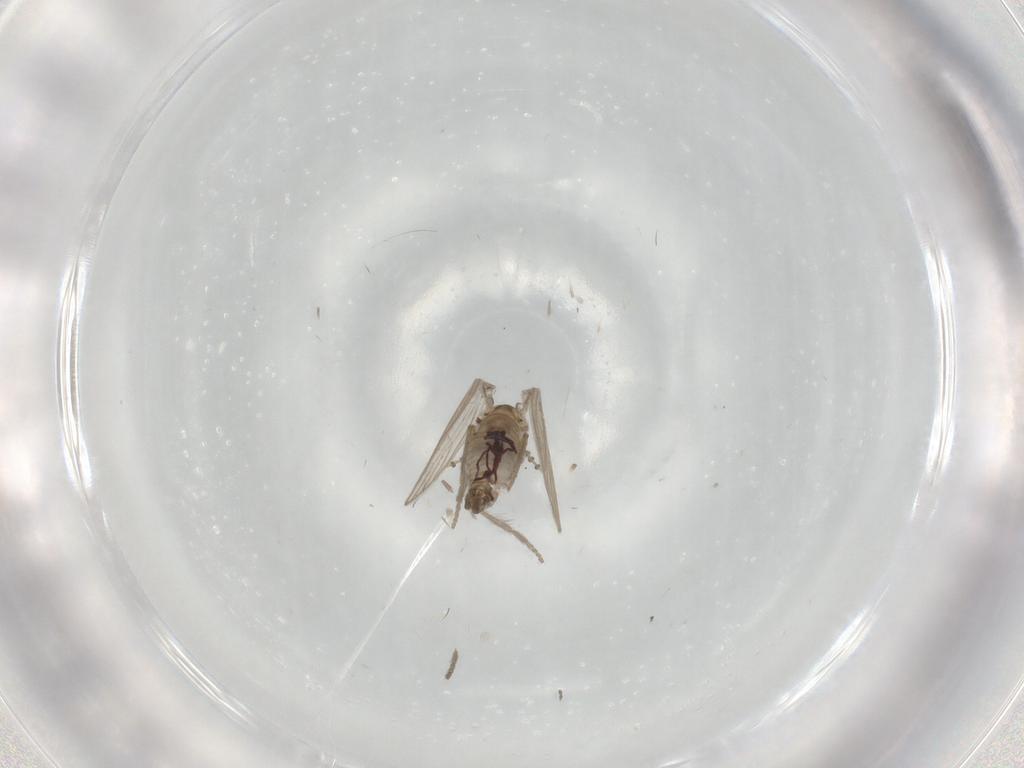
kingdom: Animalia
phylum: Arthropoda
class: Insecta
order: Diptera
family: Psychodidae
